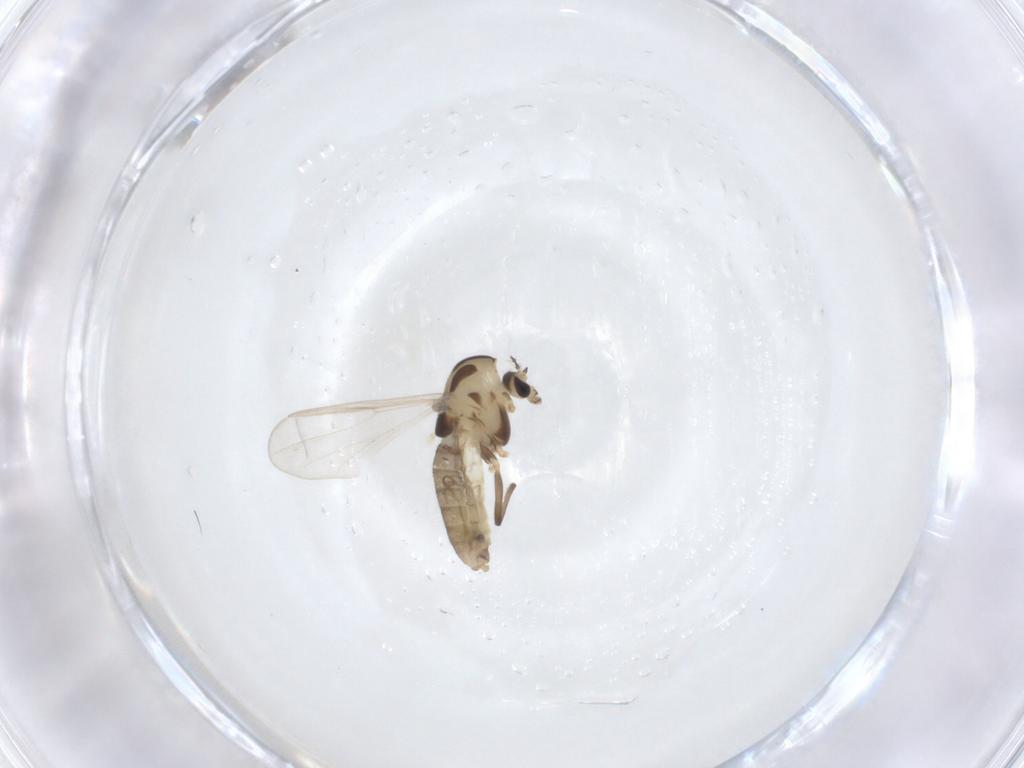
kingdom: Animalia
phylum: Arthropoda
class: Insecta
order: Diptera
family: Chironomidae
